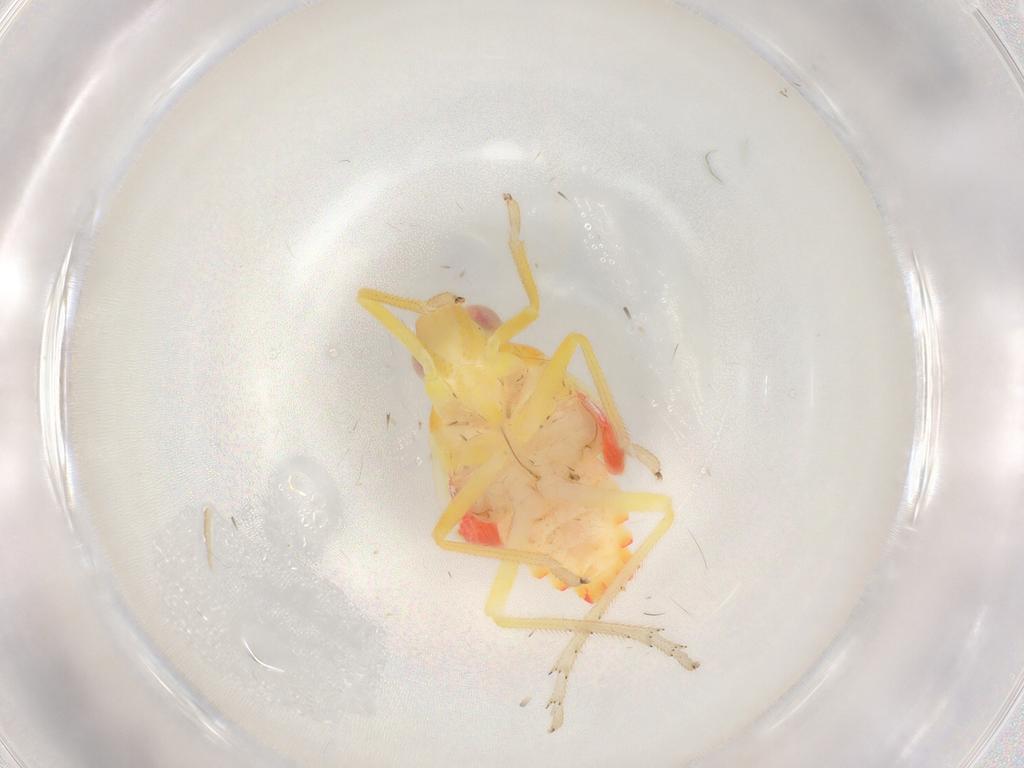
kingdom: Animalia
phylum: Arthropoda
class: Insecta
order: Hemiptera
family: Tropiduchidae
